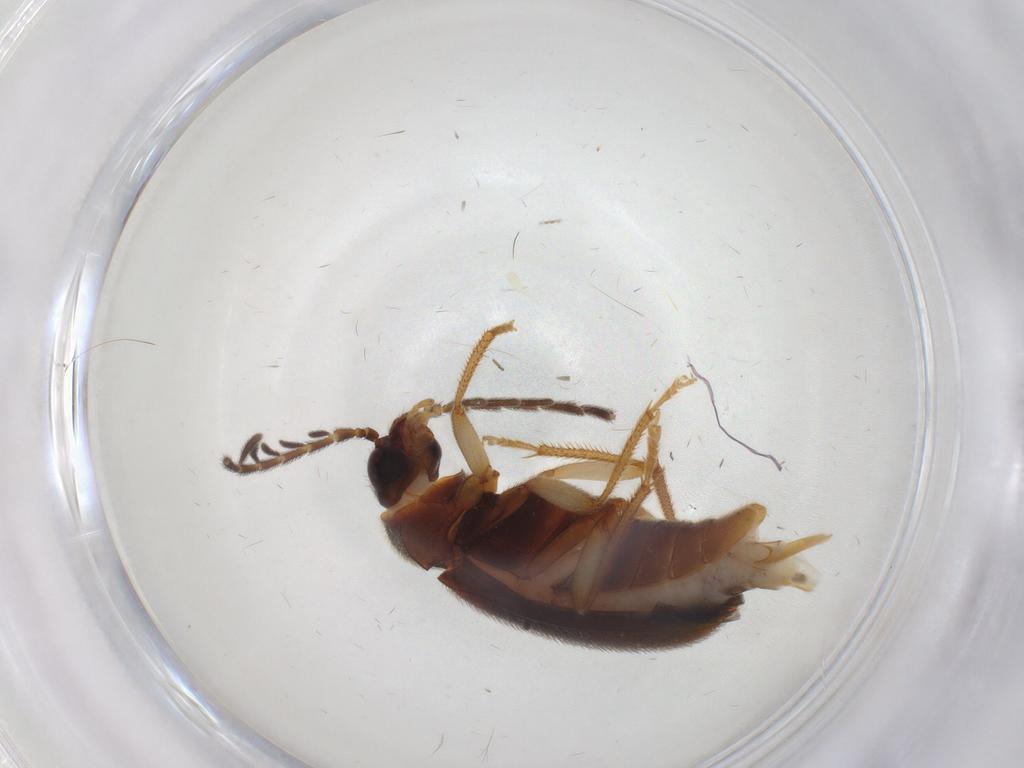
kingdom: Animalia
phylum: Arthropoda
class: Insecta
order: Coleoptera
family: Ptilodactylidae
